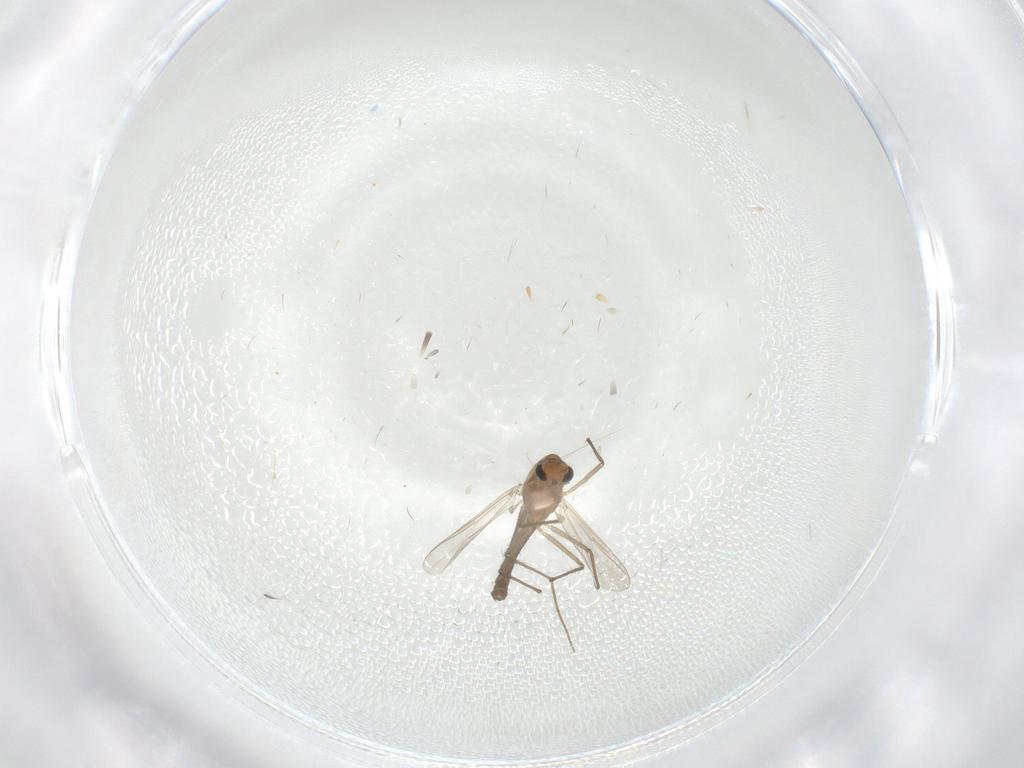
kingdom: Animalia
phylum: Arthropoda
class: Insecta
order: Diptera
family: Chironomidae
